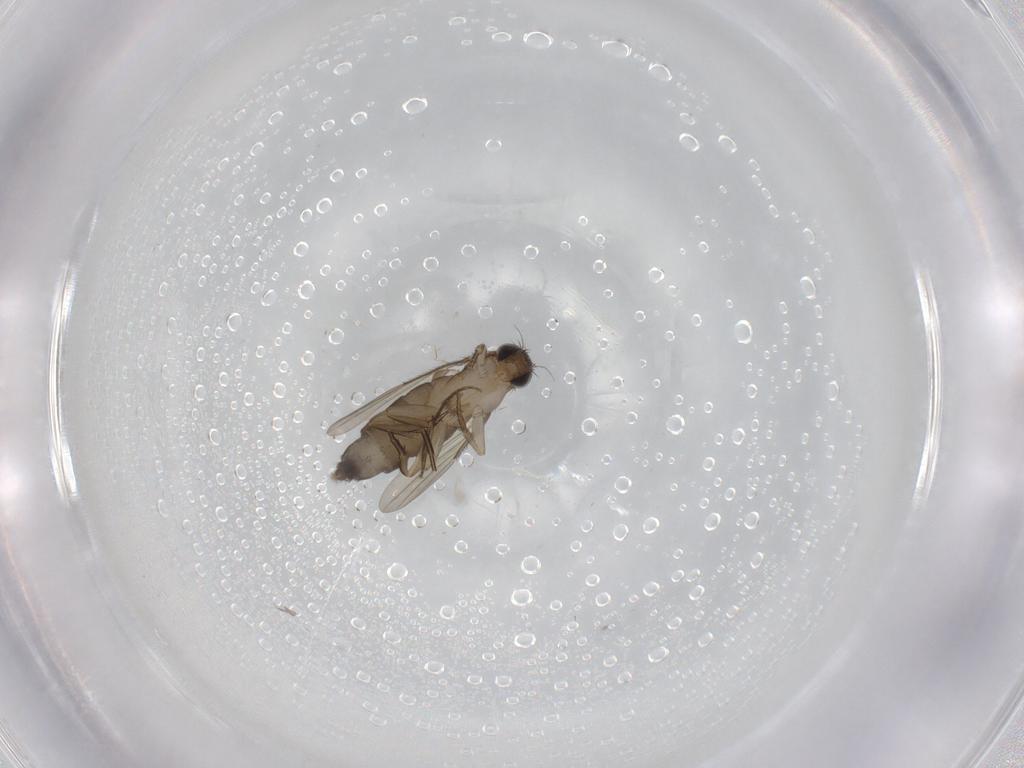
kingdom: Animalia
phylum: Arthropoda
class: Insecta
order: Diptera
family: Phoridae
